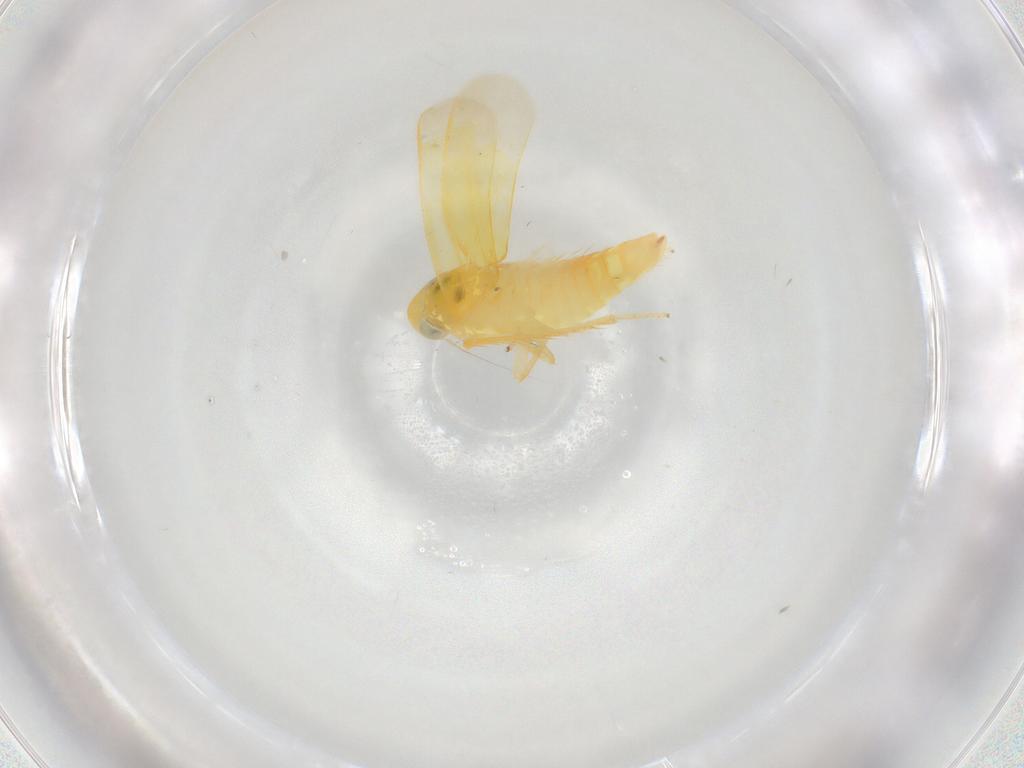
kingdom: Animalia
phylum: Arthropoda
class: Insecta
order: Hemiptera
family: Cicadellidae
